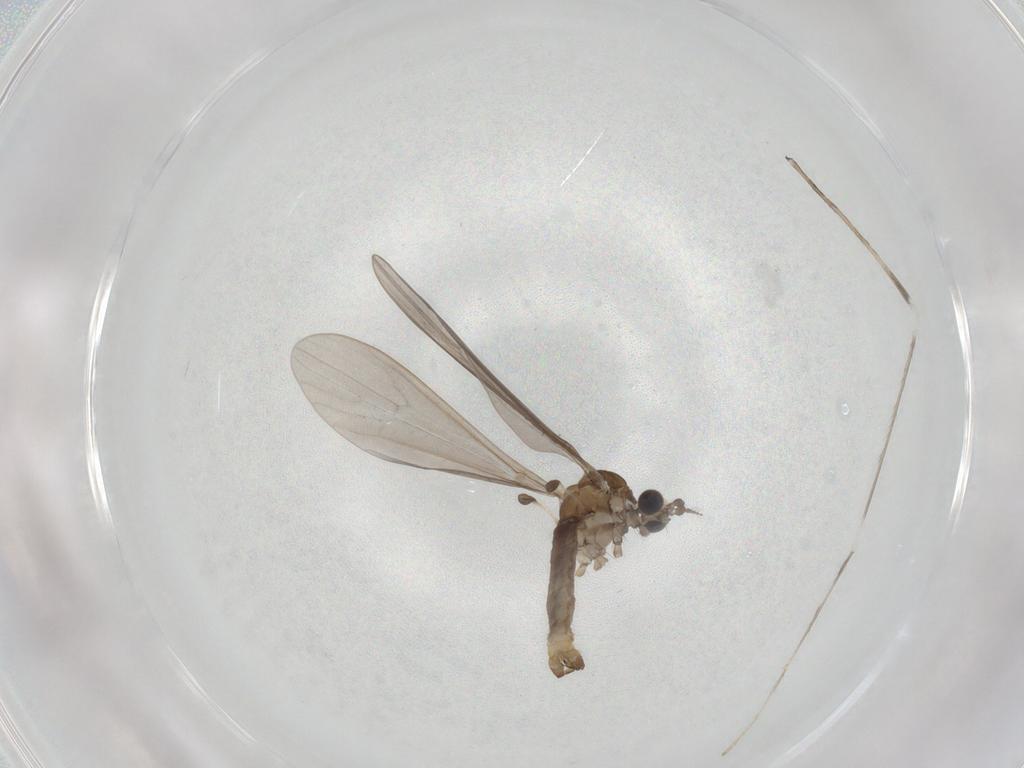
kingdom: Animalia
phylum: Arthropoda
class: Insecta
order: Diptera
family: Limoniidae
